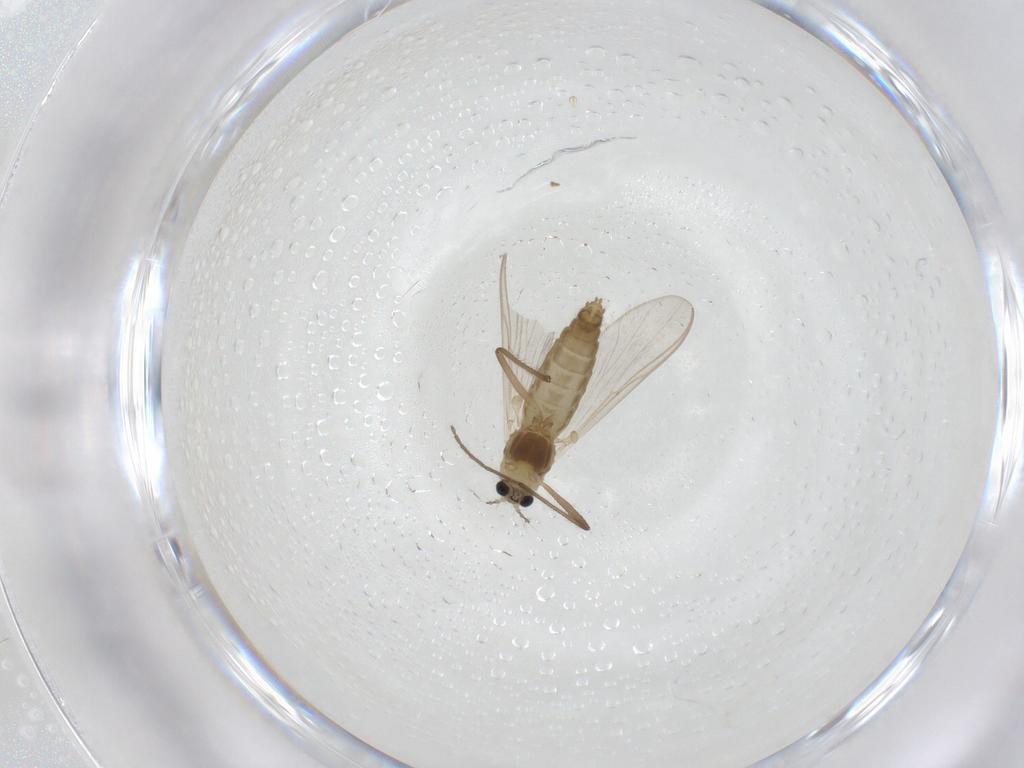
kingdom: Animalia
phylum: Arthropoda
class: Insecta
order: Diptera
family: Chironomidae
